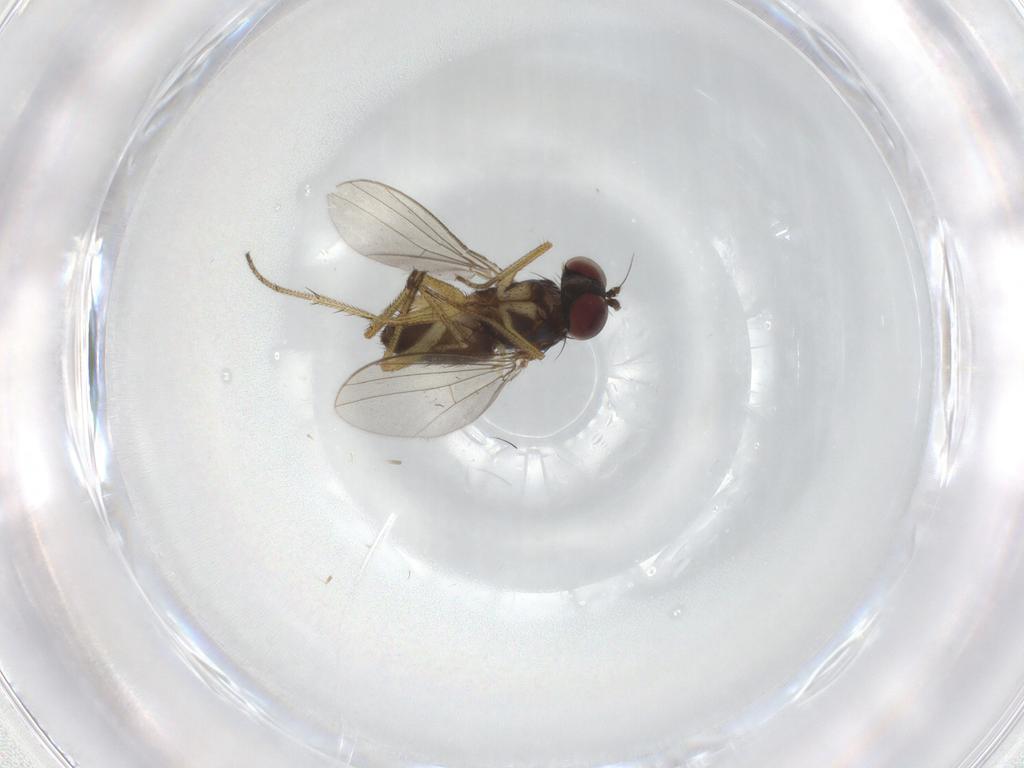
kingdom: Animalia
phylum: Arthropoda
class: Insecta
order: Diptera
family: Dolichopodidae
